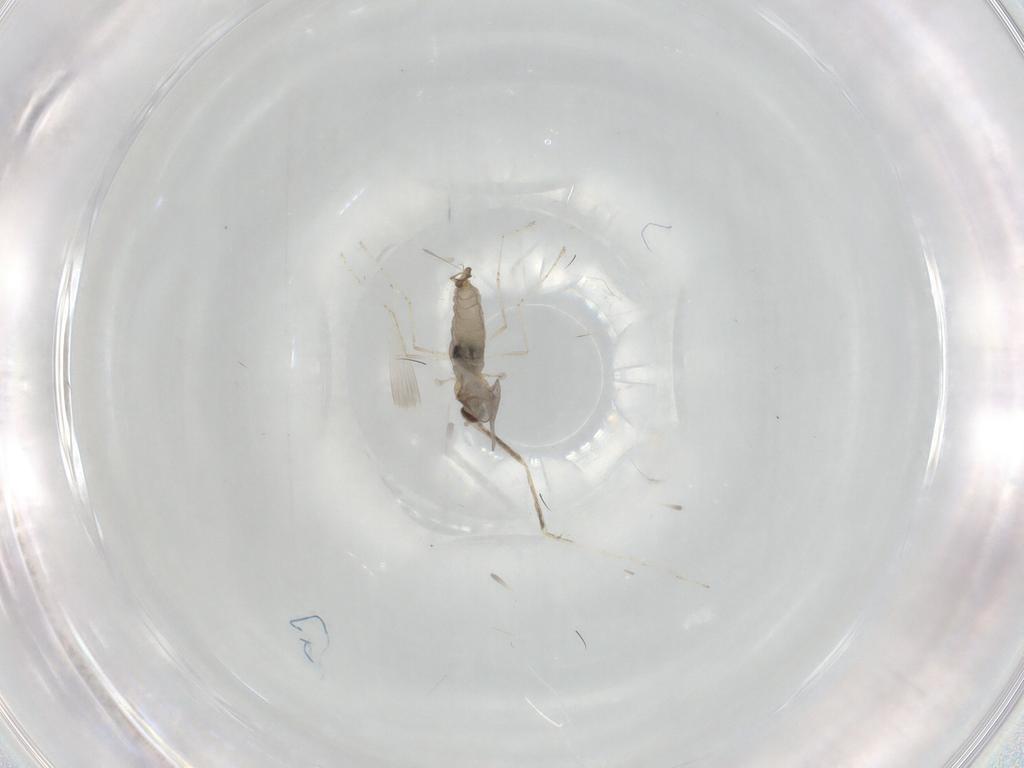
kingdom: Animalia
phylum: Arthropoda
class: Insecta
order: Diptera
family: Cecidomyiidae
